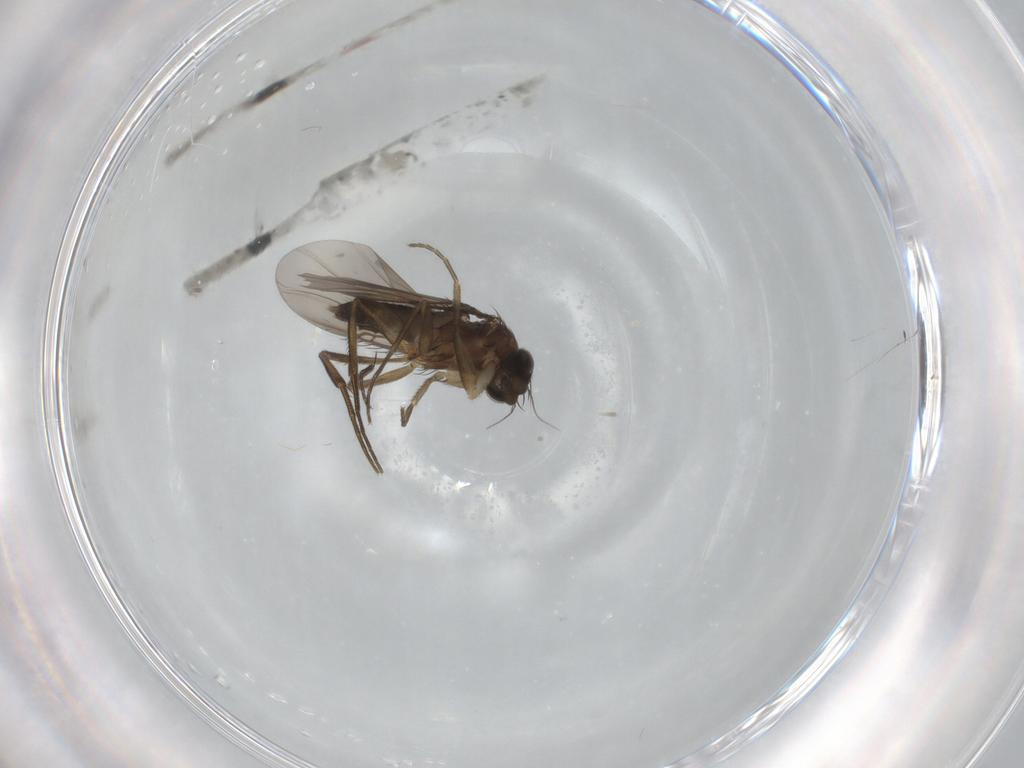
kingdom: Animalia
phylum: Arthropoda
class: Insecta
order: Diptera
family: Phoridae
